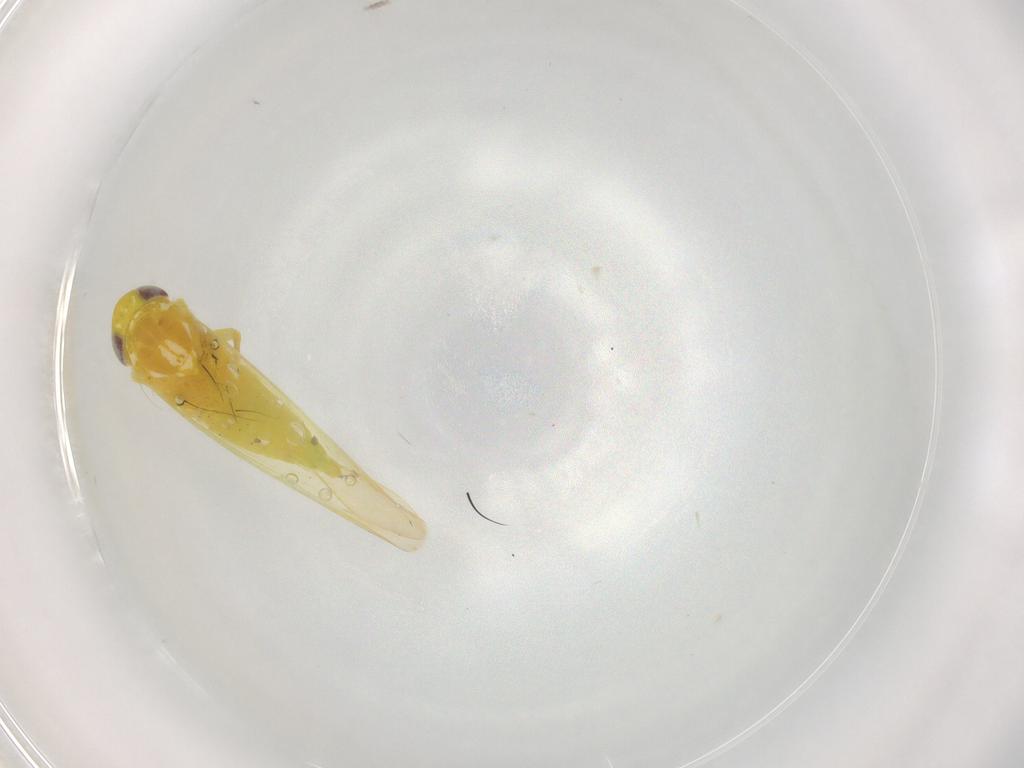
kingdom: Animalia
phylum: Arthropoda
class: Insecta
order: Hemiptera
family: Cicadellidae
